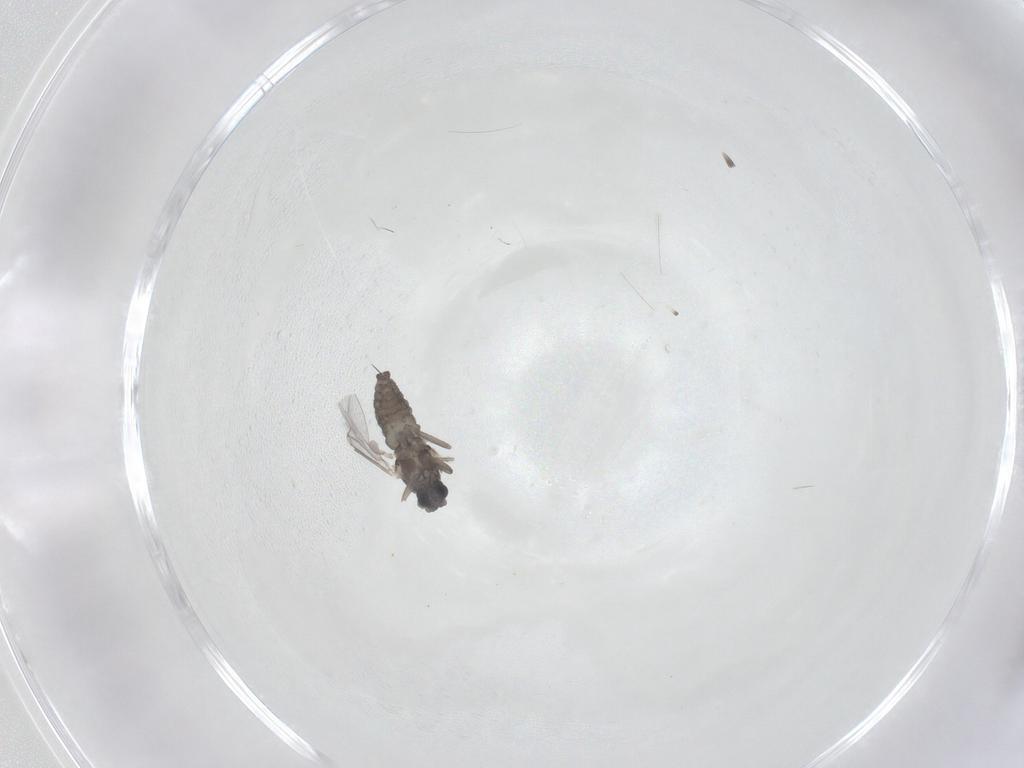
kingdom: Animalia
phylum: Arthropoda
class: Insecta
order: Diptera
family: Cecidomyiidae
